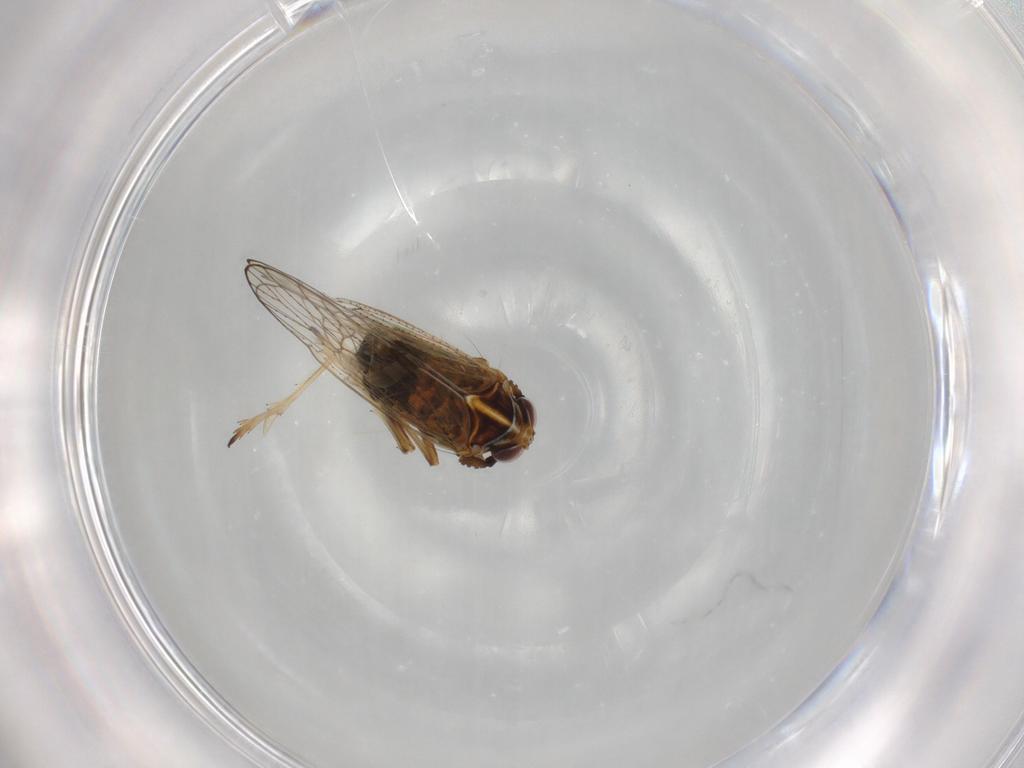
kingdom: Animalia
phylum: Arthropoda
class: Insecta
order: Hemiptera
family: Delphacidae
